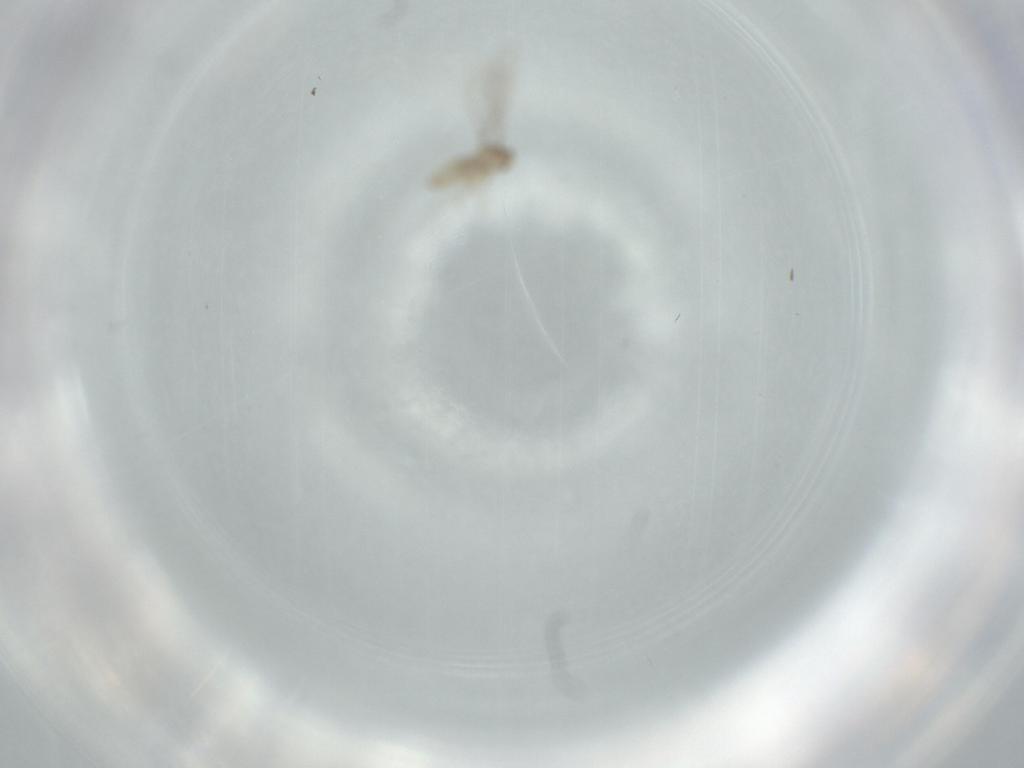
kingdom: Animalia
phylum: Arthropoda
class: Insecta
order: Diptera
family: Cecidomyiidae
